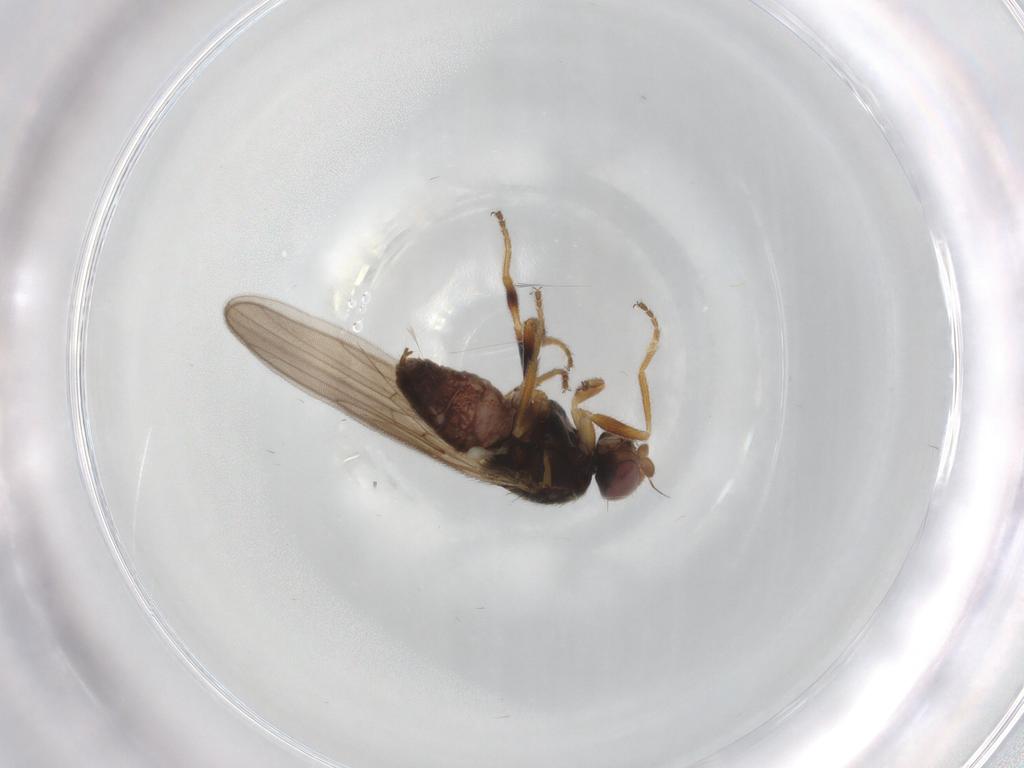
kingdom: Animalia
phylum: Arthropoda
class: Insecta
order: Diptera
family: Chloropidae
